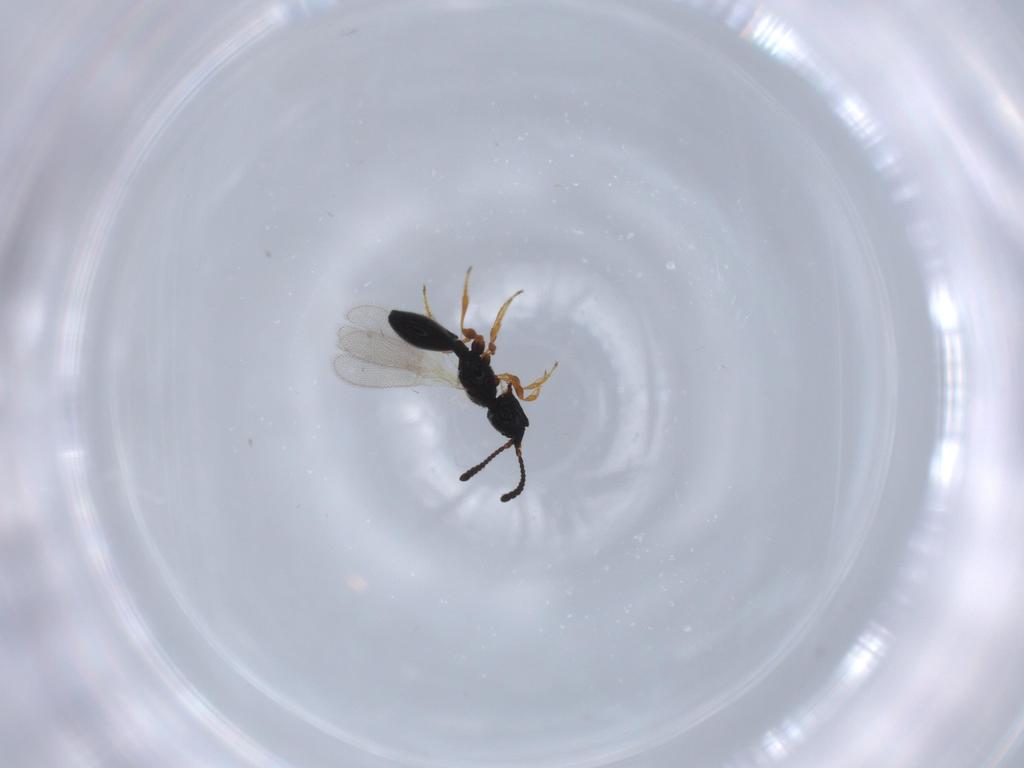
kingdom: Animalia
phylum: Arthropoda
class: Insecta
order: Hymenoptera
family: Diapriidae
